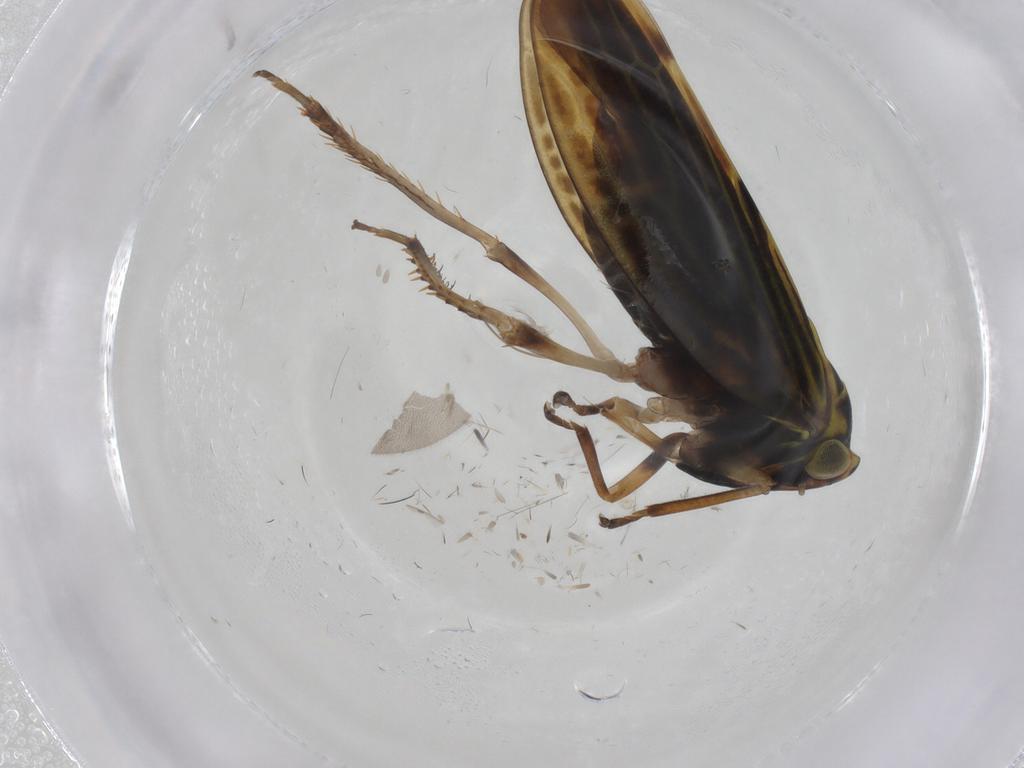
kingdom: Animalia
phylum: Arthropoda
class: Insecta
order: Hemiptera
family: Cicadellidae
